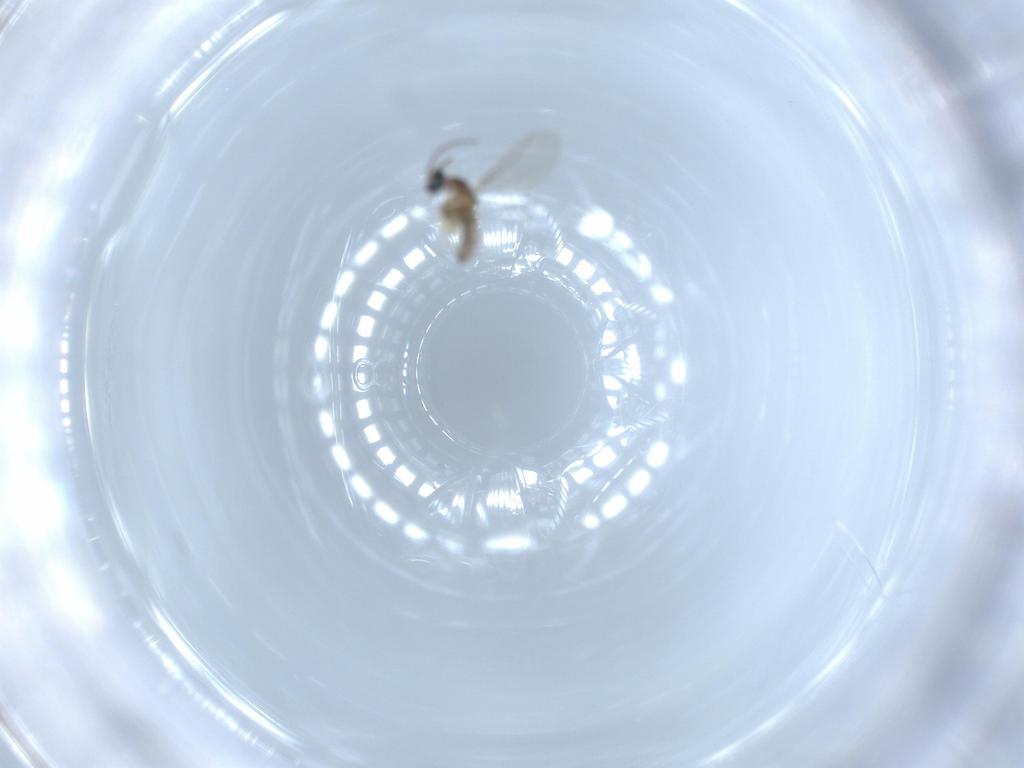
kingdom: Animalia
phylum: Arthropoda
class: Insecta
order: Diptera
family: Cecidomyiidae
